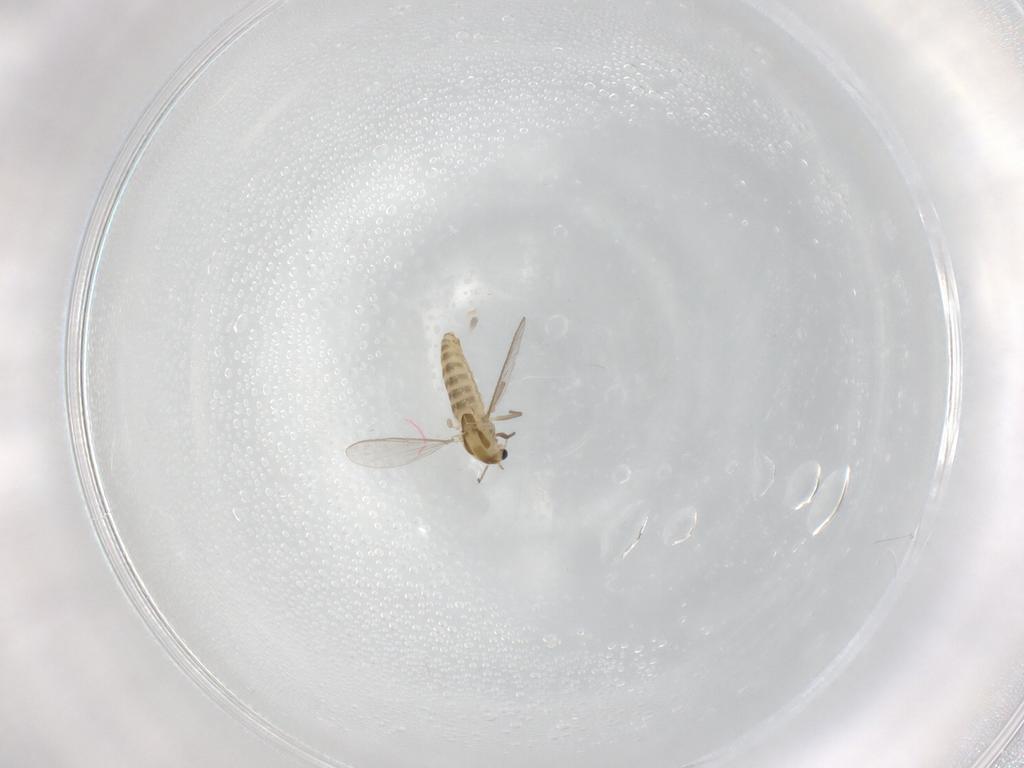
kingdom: Animalia
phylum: Arthropoda
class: Insecta
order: Diptera
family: Chironomidae
